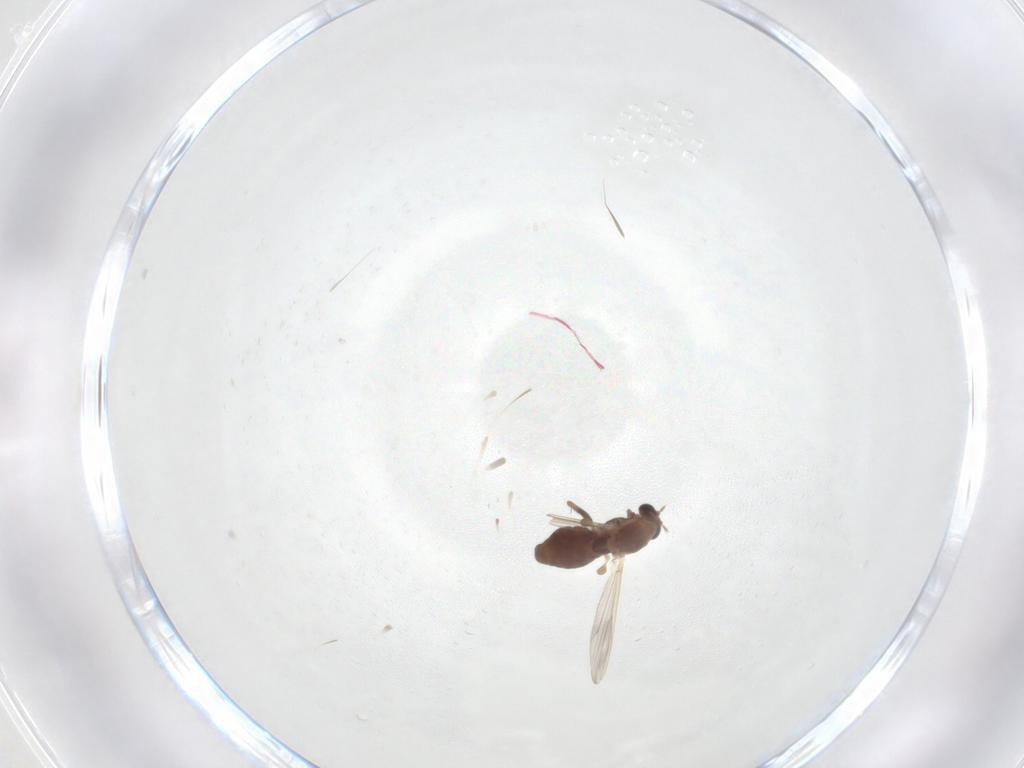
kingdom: Animalia
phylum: Arthropoda
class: Insecta
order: Diptera
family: Chironomidae
